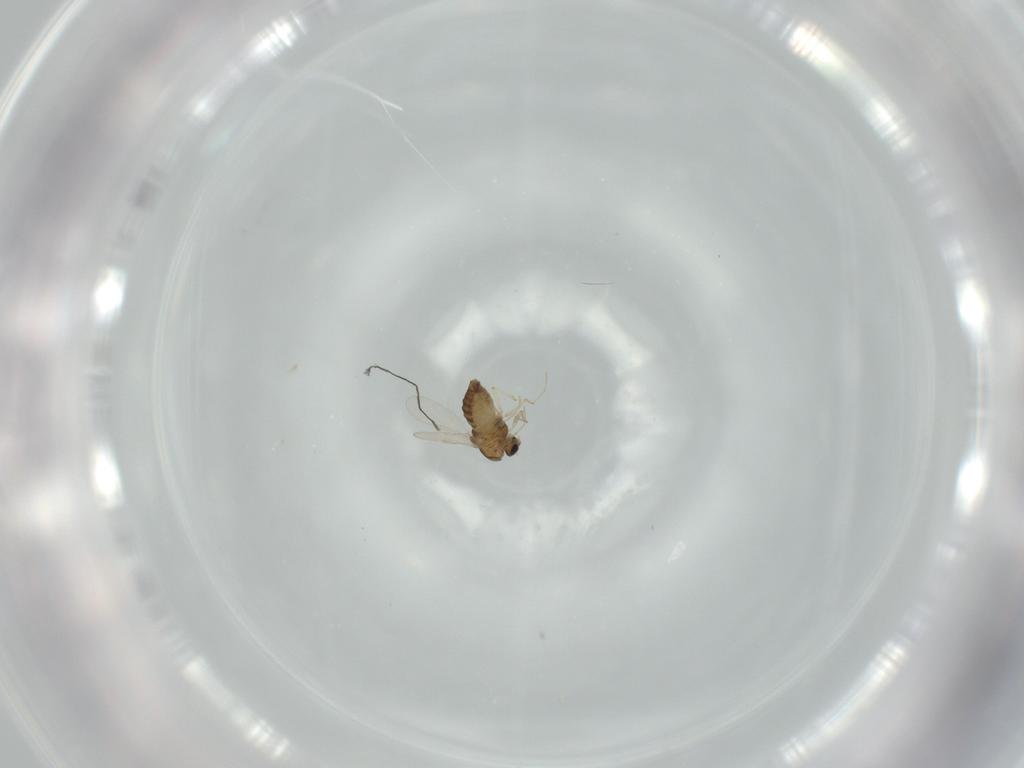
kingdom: Animalia
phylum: Arthropoda
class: Insecta
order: Diptera
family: Chironomidae
